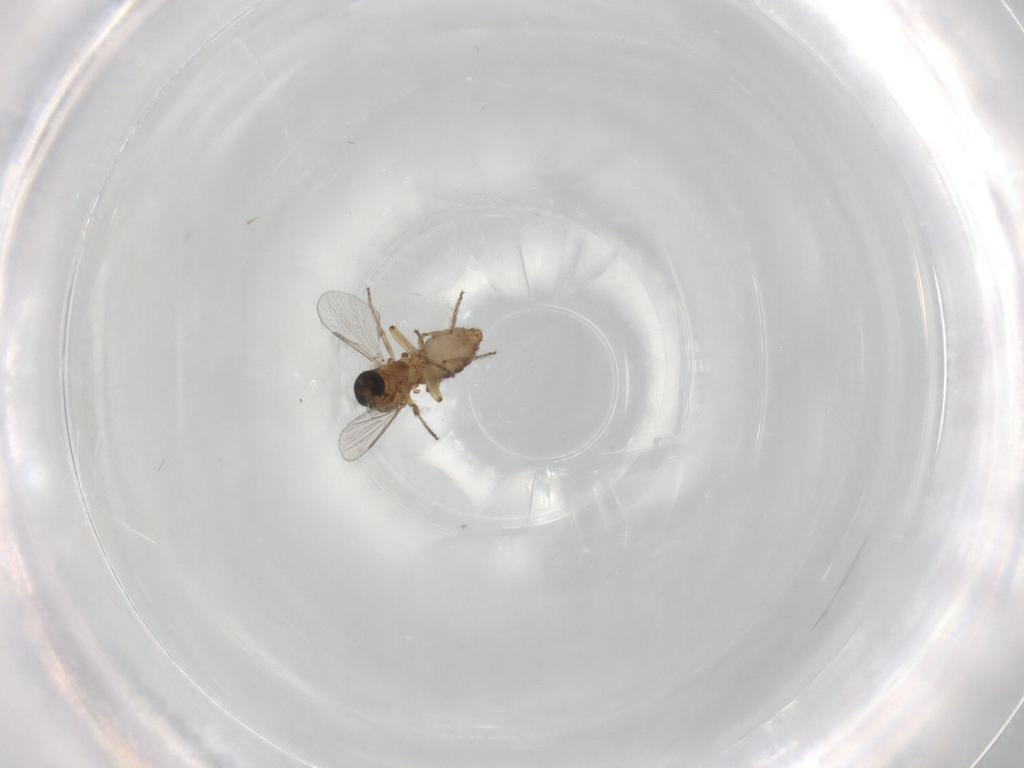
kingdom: Animalia
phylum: Arthropoda
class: Insecta
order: Diptera
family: Ceratopogonidae
